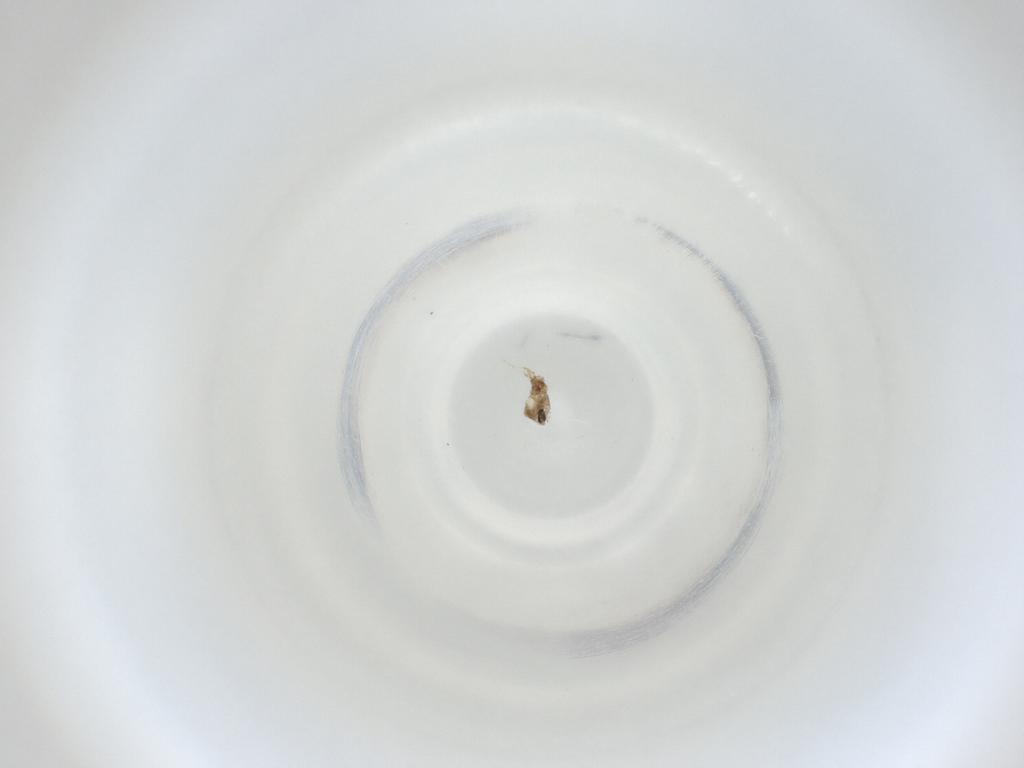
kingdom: Animalia
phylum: Arthropoda
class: Insecta
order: Diptera
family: Cecidomyiidae
